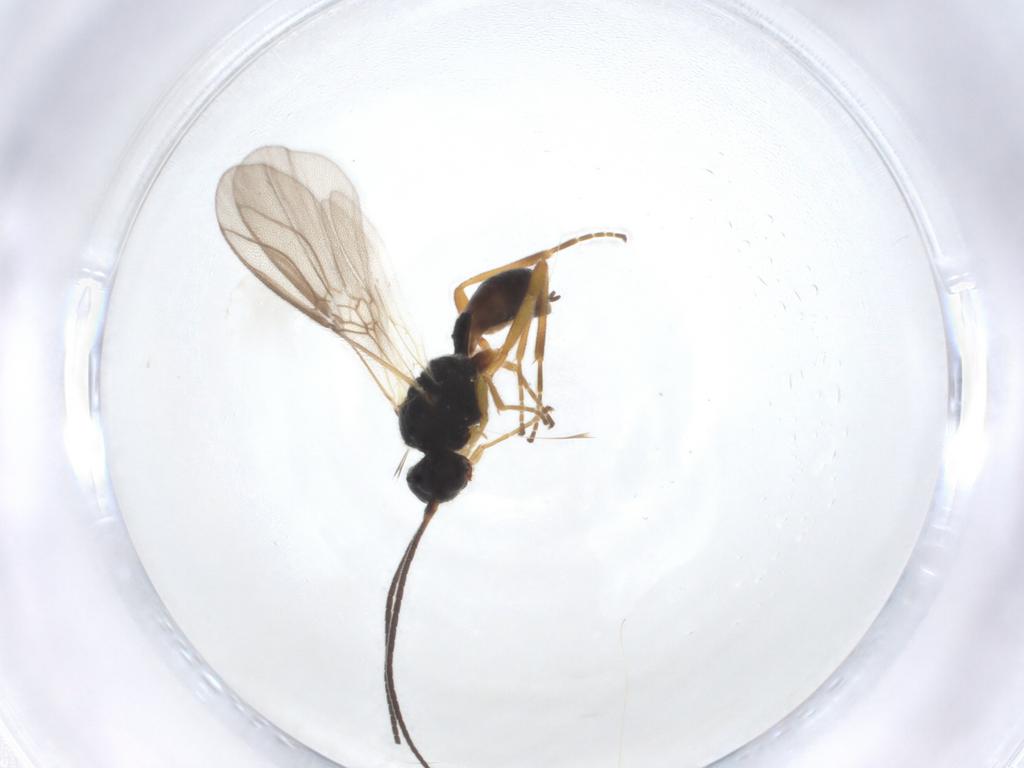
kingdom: Animalia
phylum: Arthropoda
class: Insecta
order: Hymenoptera
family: Braconidae
